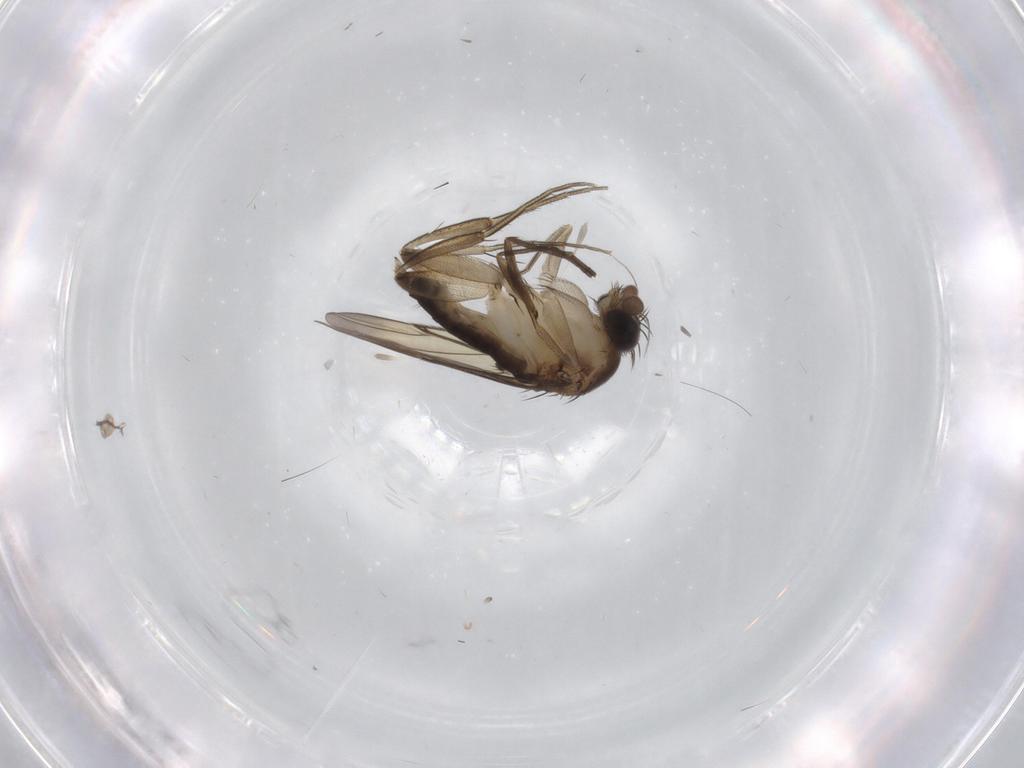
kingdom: Animalia
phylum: Arthropoda
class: Insecta
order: Diptera
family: Phoridae
